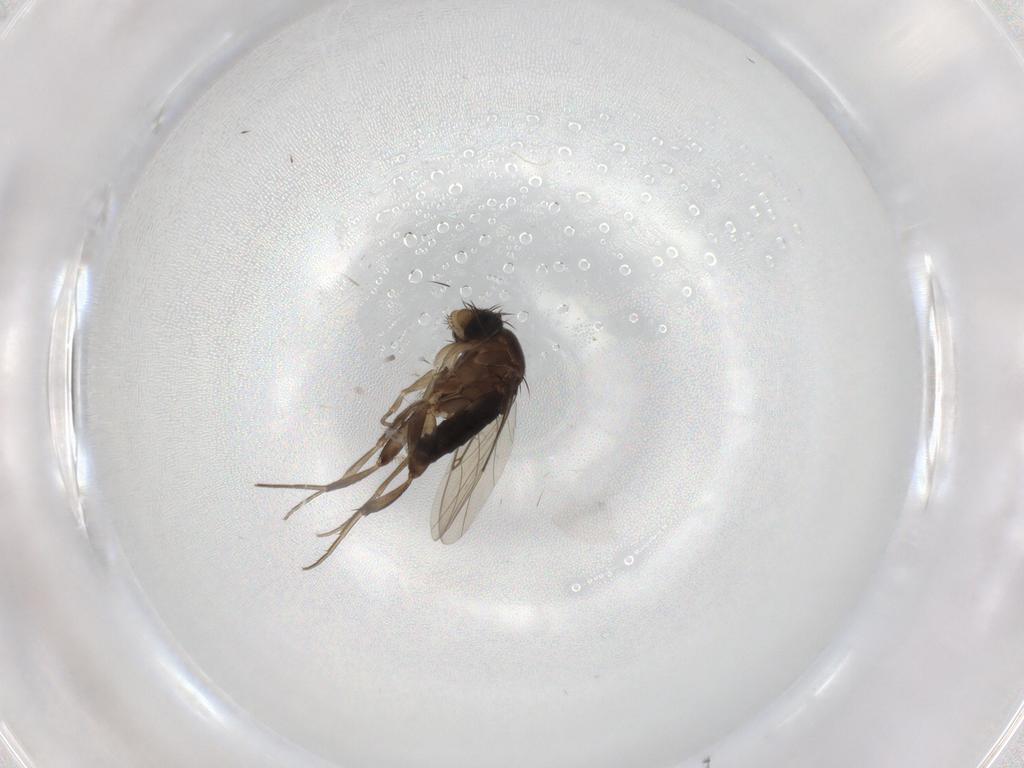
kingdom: Animalia
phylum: Arthropoda
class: Insecta
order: Diptera
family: Phoridae
